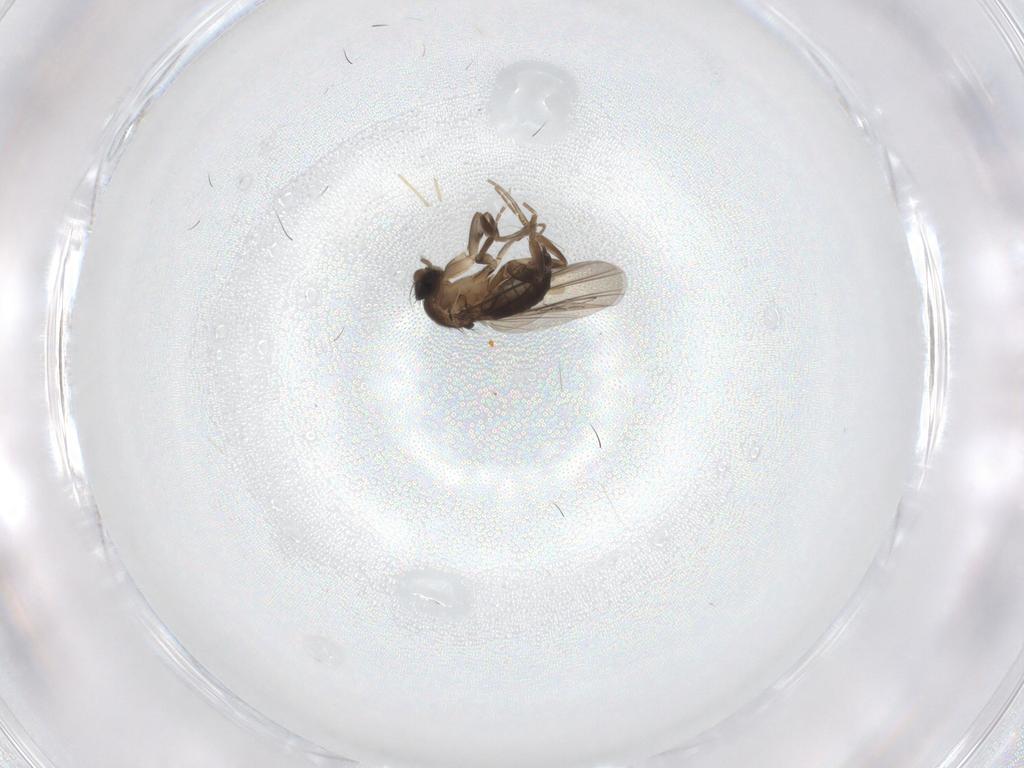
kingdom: Animalia
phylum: Arthropoda
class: Insecta
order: Diptera
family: Phoridae
